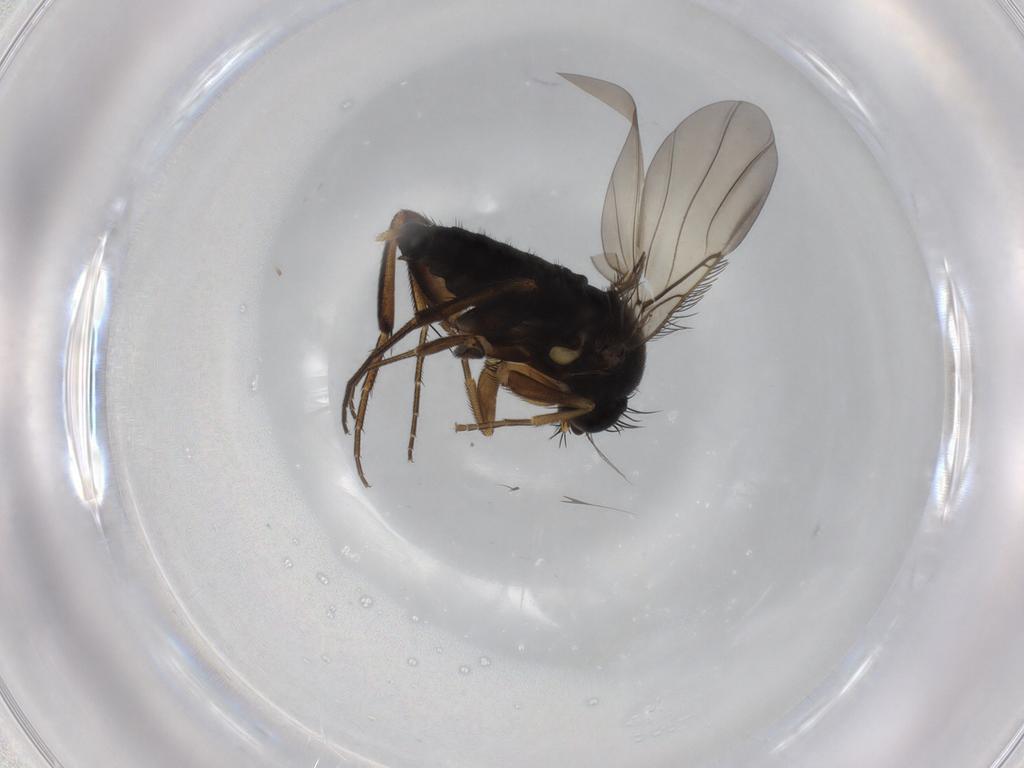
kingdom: Animalia
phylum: Arthropoda
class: Insecta
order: Diptera
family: Phoridae
